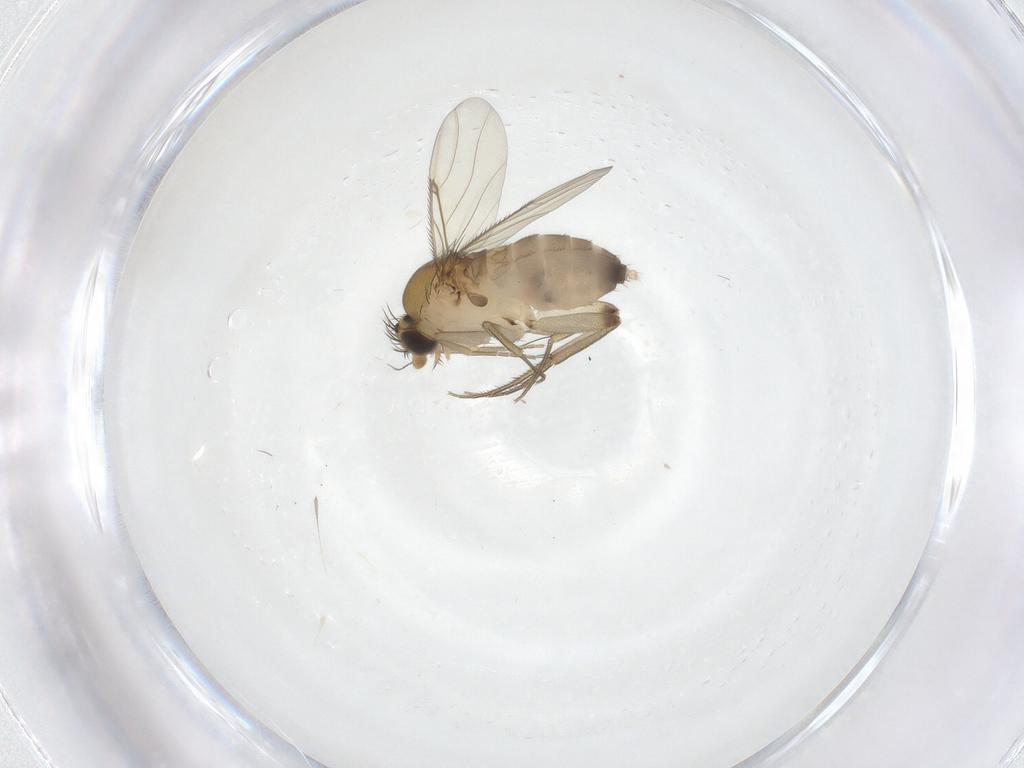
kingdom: Animalia
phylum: Arthropoda
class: Insecta
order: Diptera
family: Phoridae
